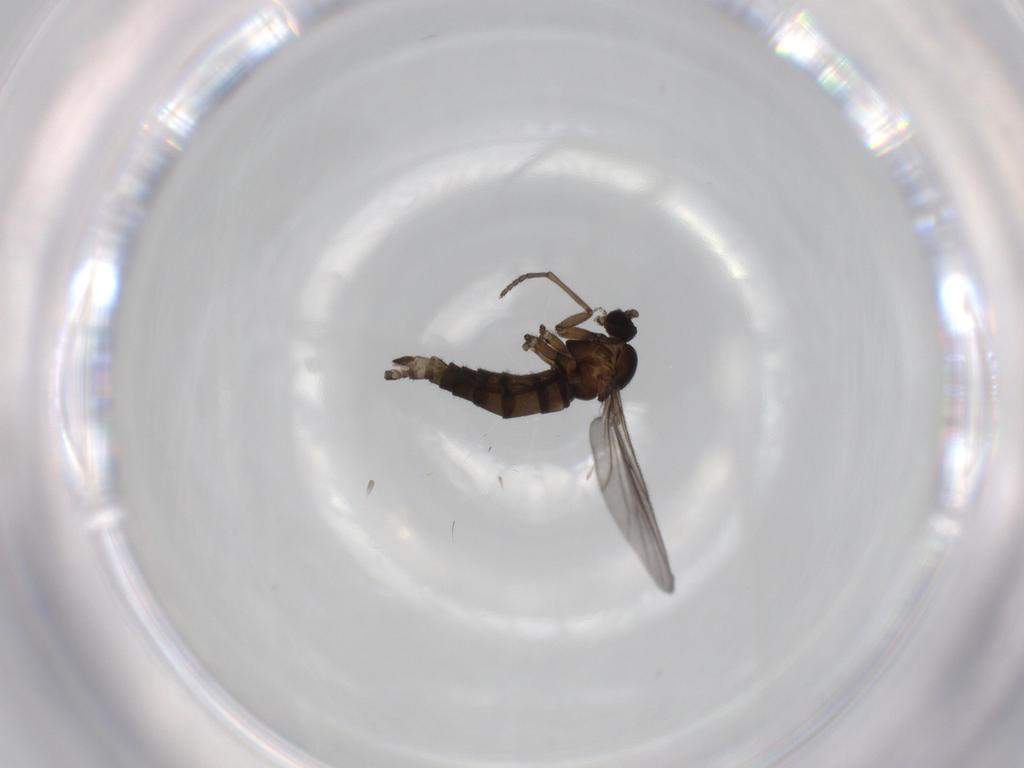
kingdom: Animalia
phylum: Arthropoda
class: Insecta
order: Diptera
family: Sciaridae
